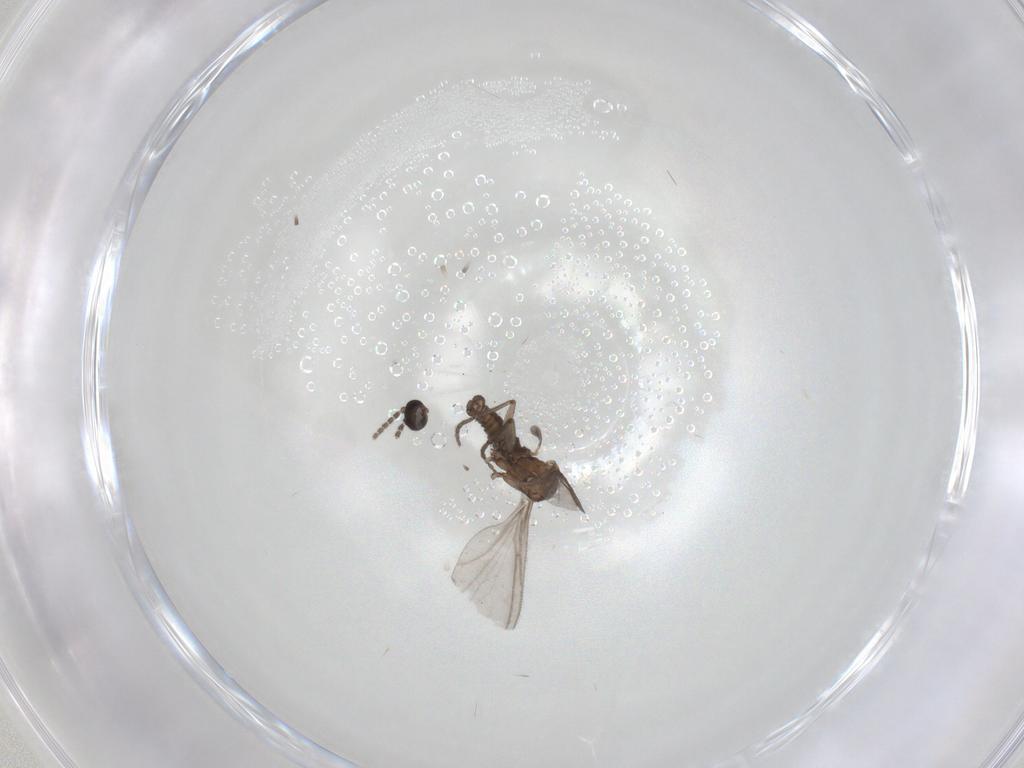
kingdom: Animalia
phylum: Arthropoda
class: Insecta
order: Diptera
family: Sciaridae
